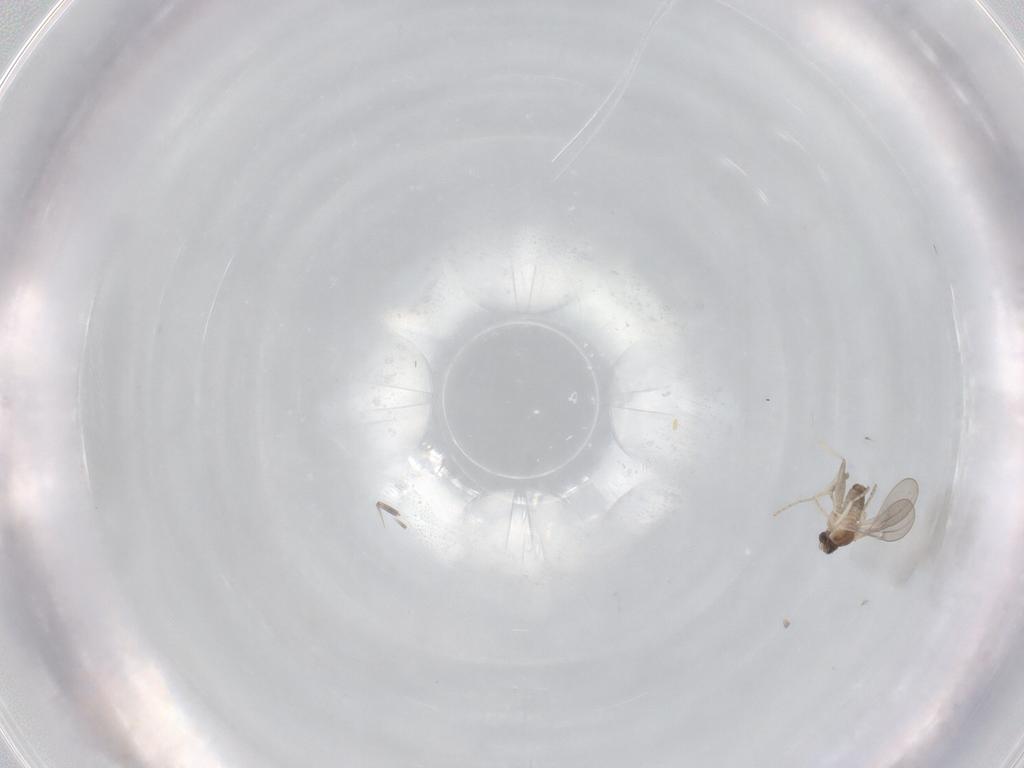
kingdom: Animalia
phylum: Arthropoda
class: Insecta
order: Diptera
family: Cecidomyiidae
